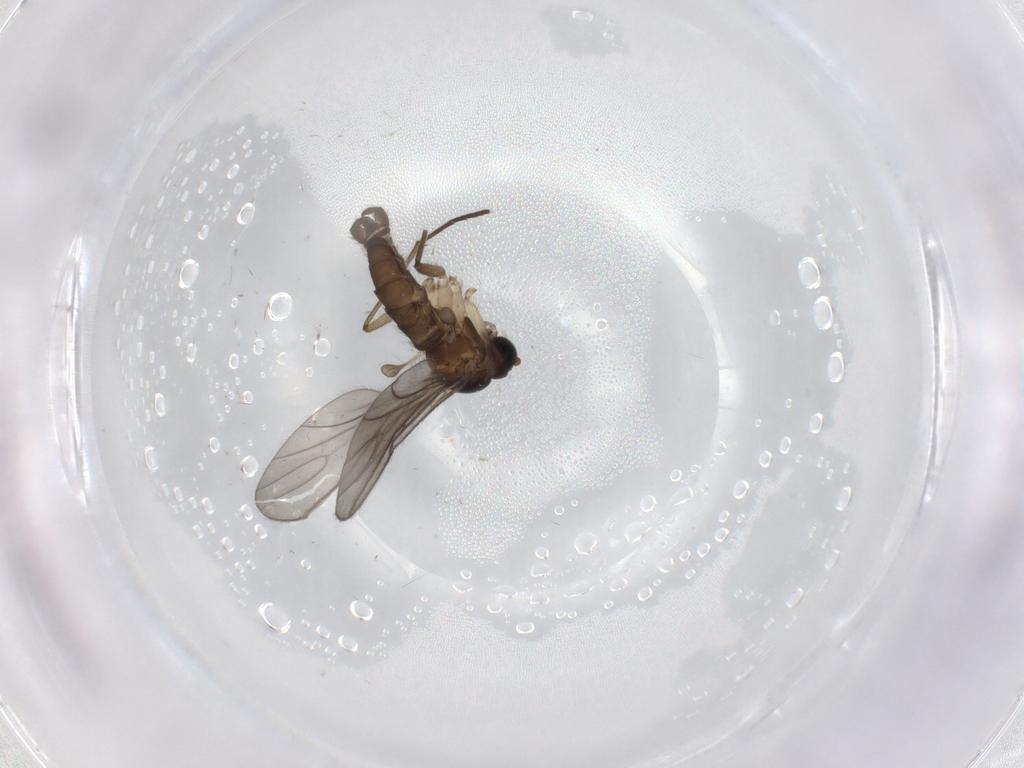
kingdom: Animalia
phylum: Arthropoda
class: Insecta
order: Diptera
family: Sciaridae
